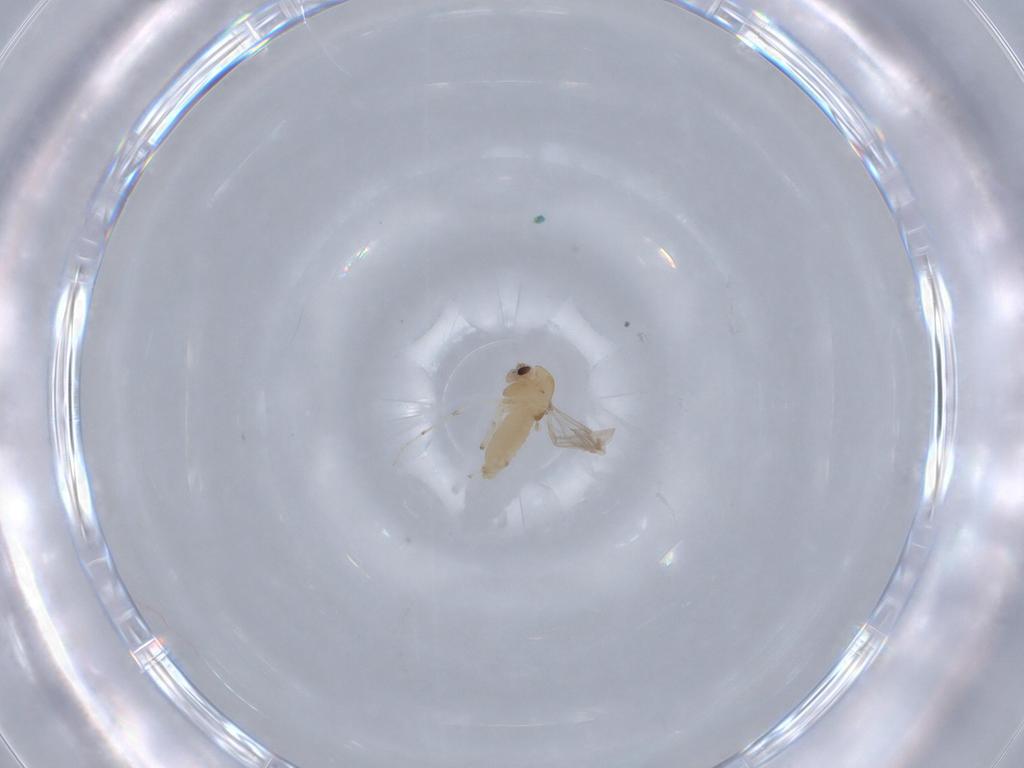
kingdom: Animalia
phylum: Arthropoda
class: Insecta
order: Diptera
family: Chironomidae
